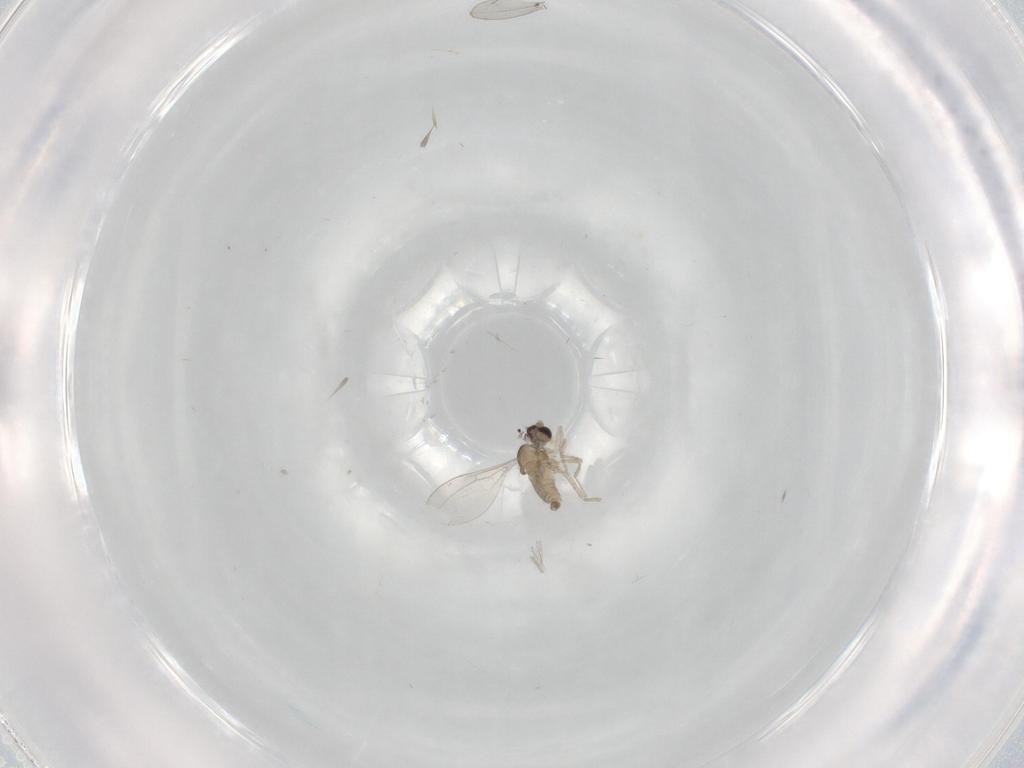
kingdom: Animalia
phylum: Arthropoda
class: Insecta
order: Diptera
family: Cecidomyiidae
